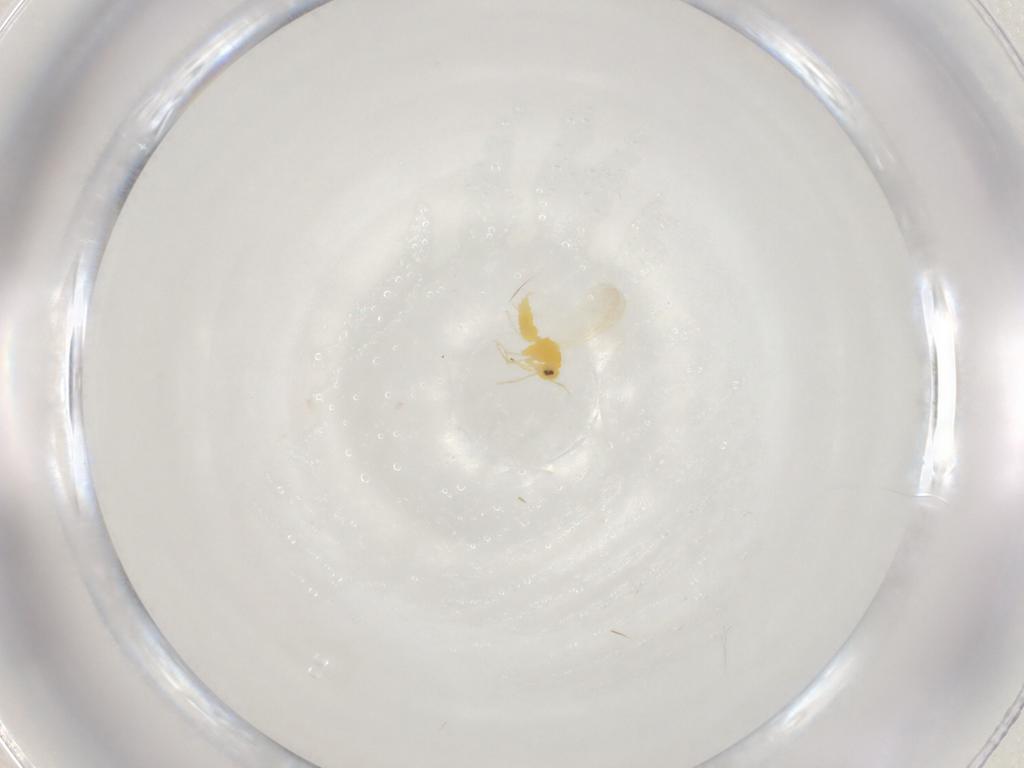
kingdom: Animalia
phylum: Arthropoda
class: Insecta
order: Hemiptera
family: Aleyrodidae
